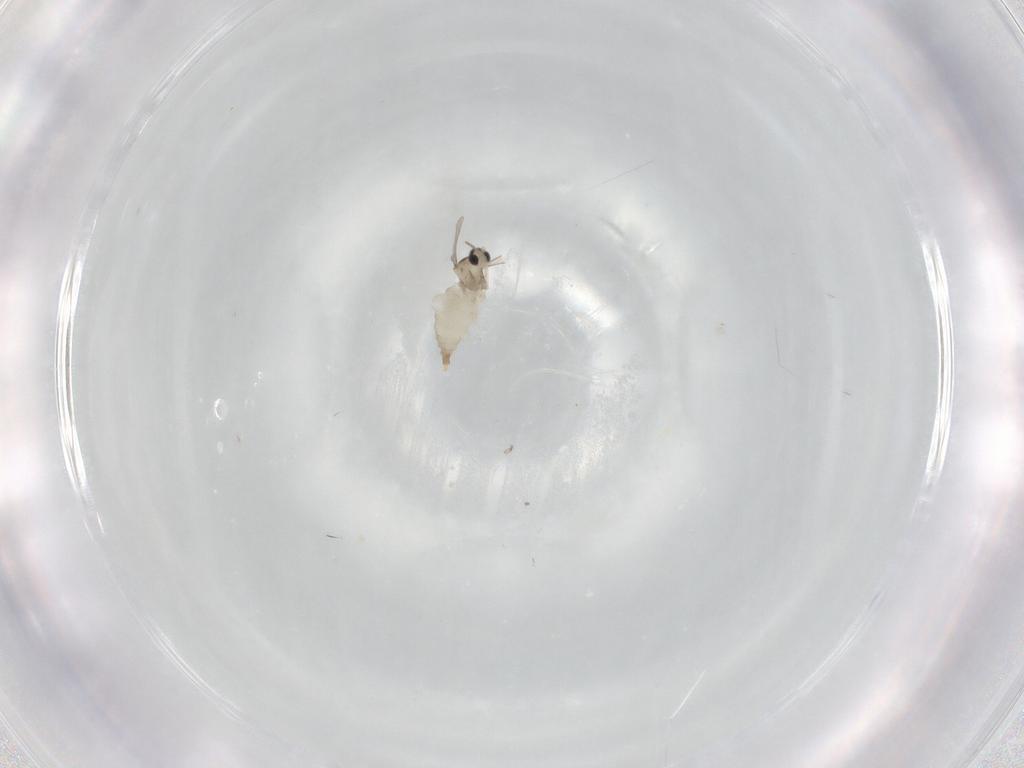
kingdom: Animalia
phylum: Arthropoda
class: Insecta
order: Diptera
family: Cecidomyiidae
